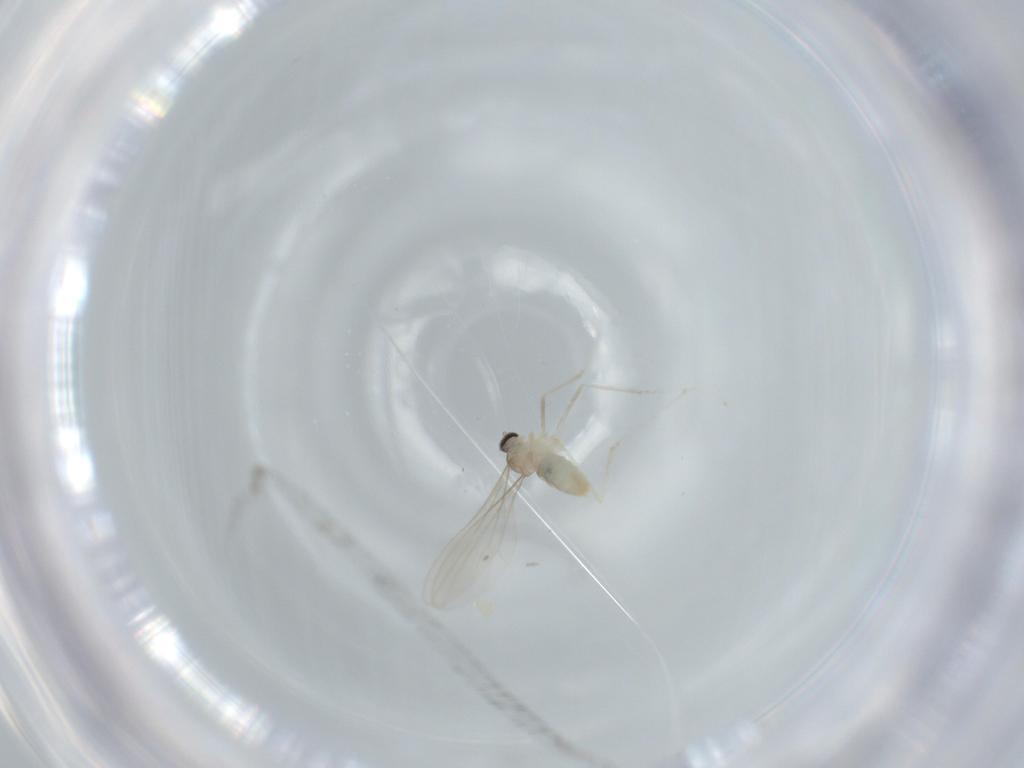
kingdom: Animalia
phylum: Arthropoda
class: Insecta
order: Diptera
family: Cecidomyiidae
